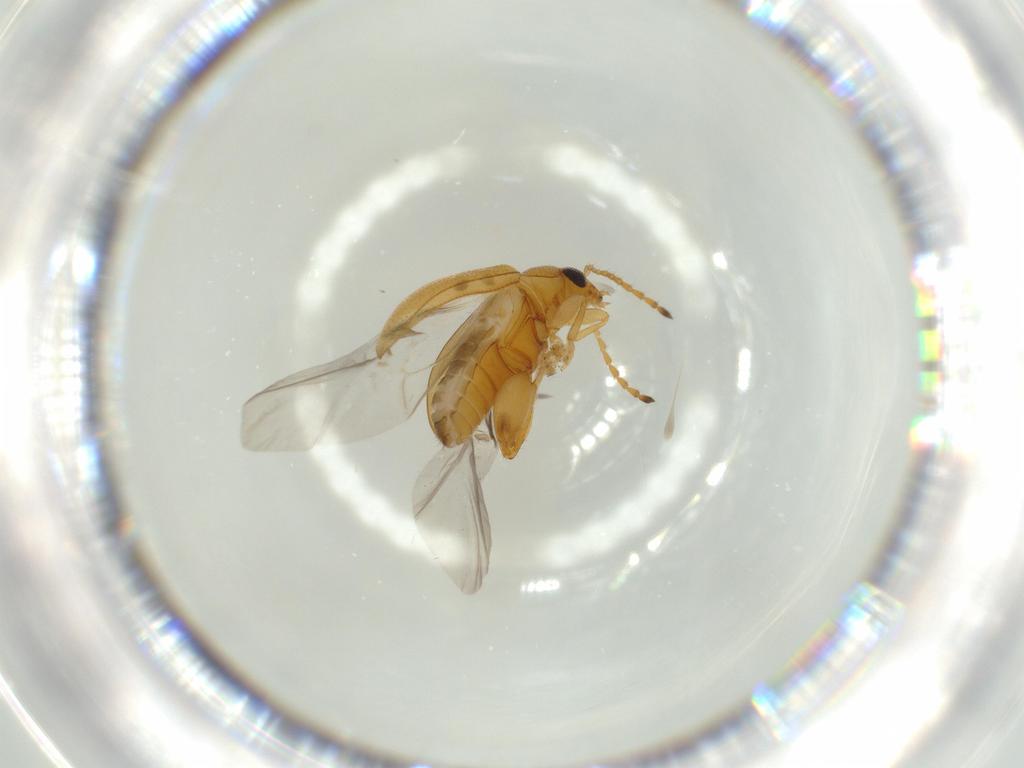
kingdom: Animalia
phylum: Arthropoda
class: Insecta
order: Coleoptera
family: Chrysomelidae
